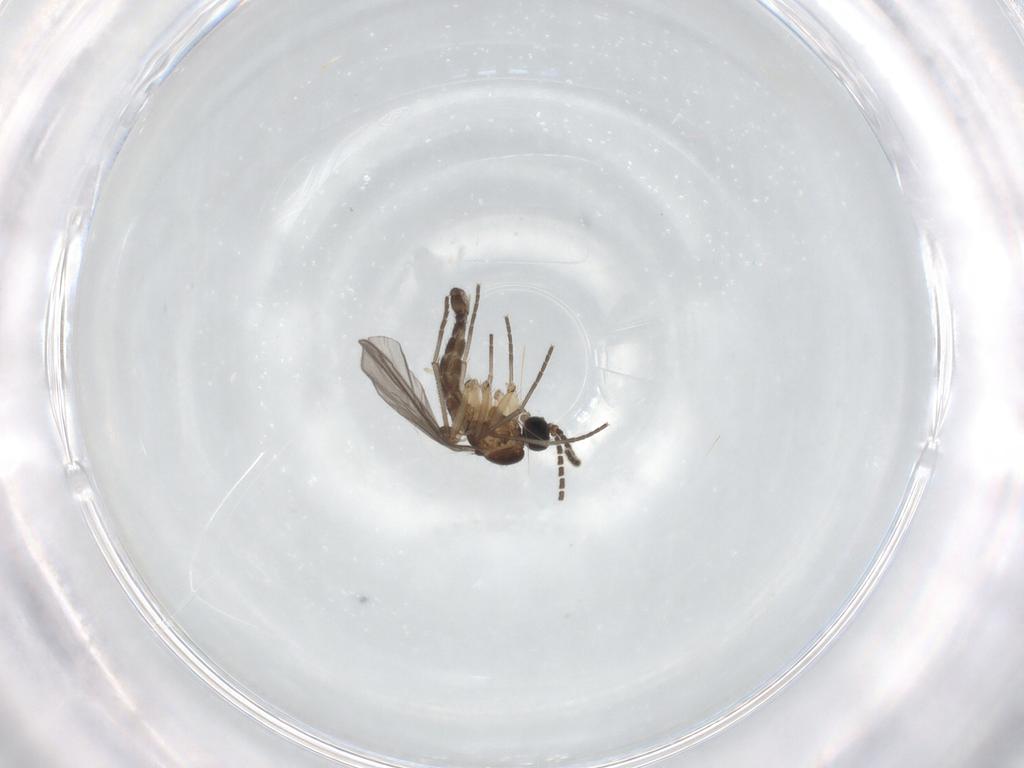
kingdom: Animalia
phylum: Arthropoda
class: Insecta
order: Diptera
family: Sciaridae
